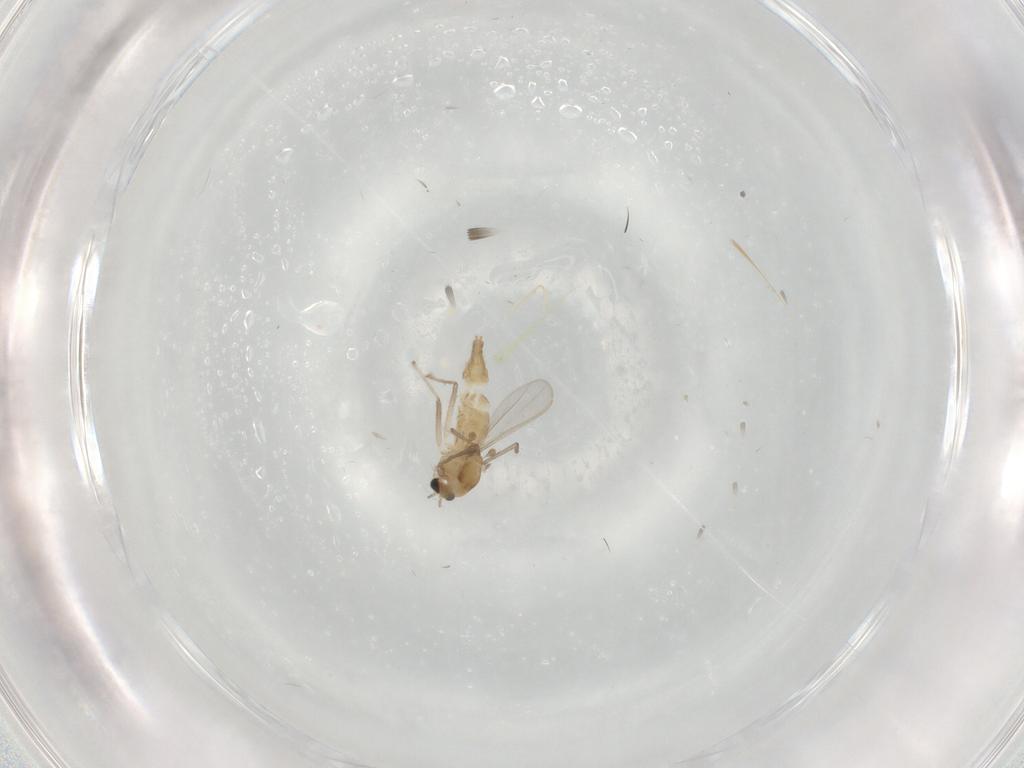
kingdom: Animalia
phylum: Arthropoda
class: Insecta
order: Diptera
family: Chironomidae
